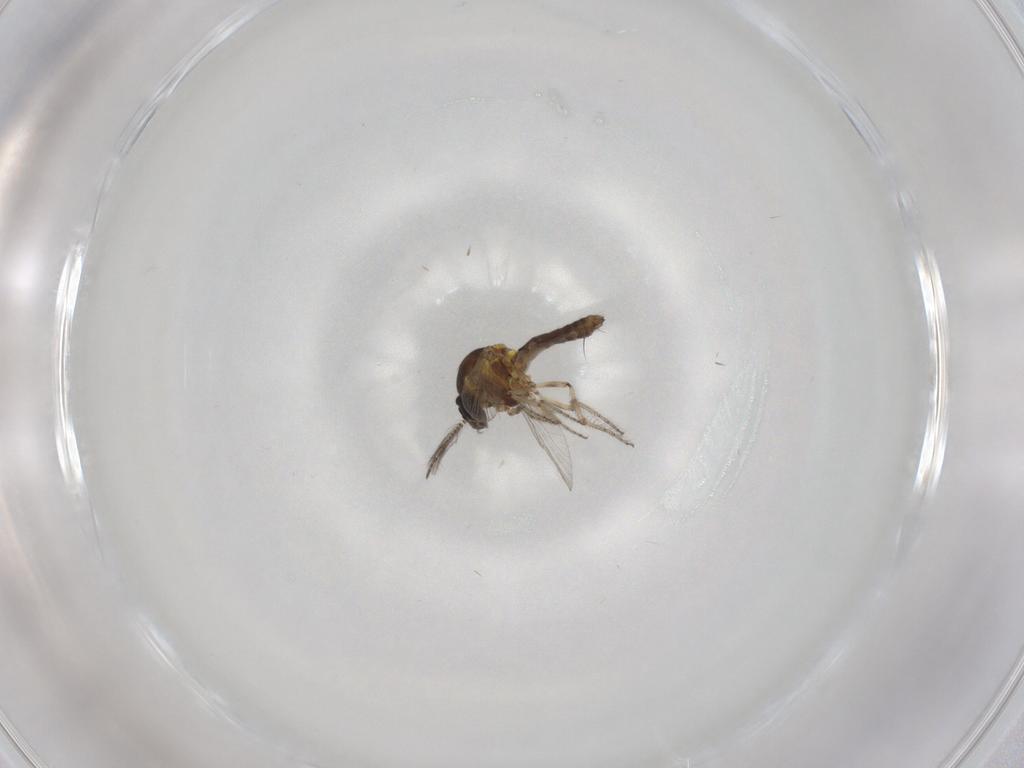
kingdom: Animalia
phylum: Arthropoda
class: Insecta
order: Diptera
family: Ceratopogonidae
